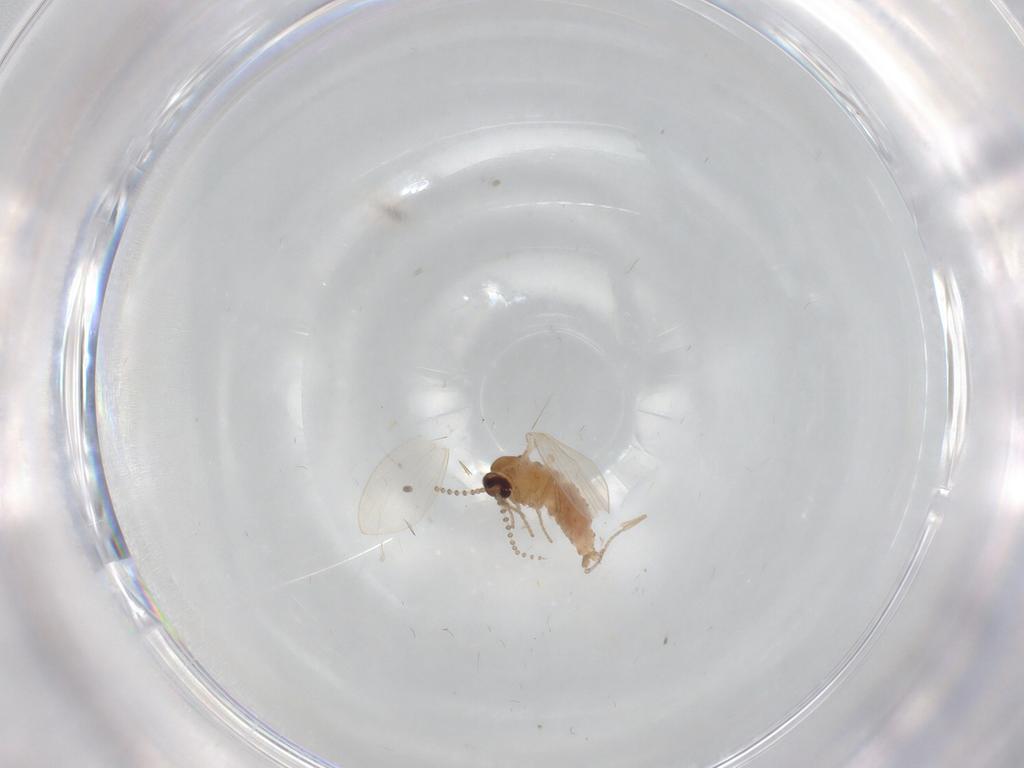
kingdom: Animalia
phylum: Arthropoda
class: Insecta
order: Diptera
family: Psychodidae
